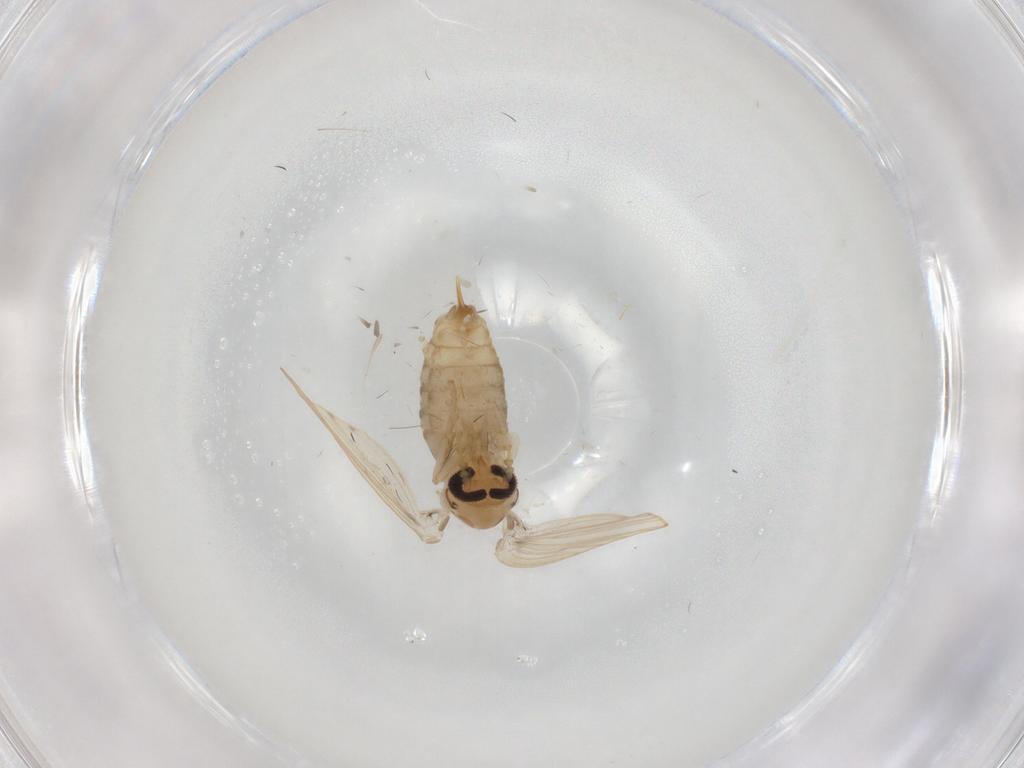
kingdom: Animalia
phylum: Arthropoda
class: Insecta
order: Diptera
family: Psychodidae
